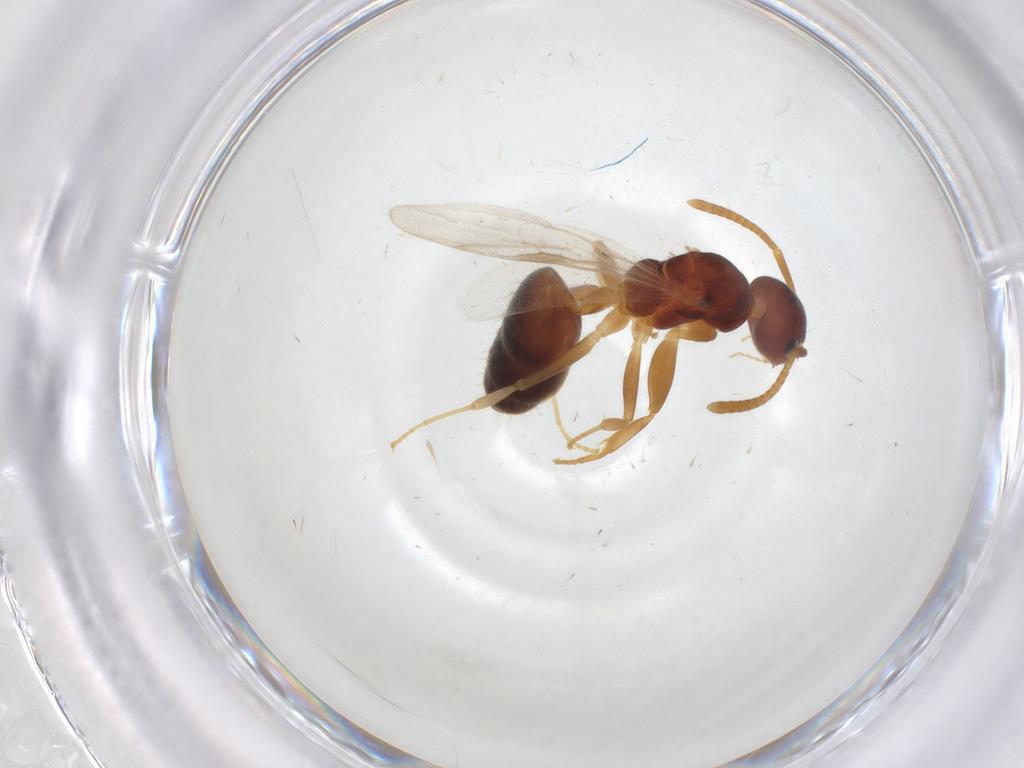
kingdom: Animalia
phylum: Arthropoda
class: Insecta
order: Hymenoptera
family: Formicidae
